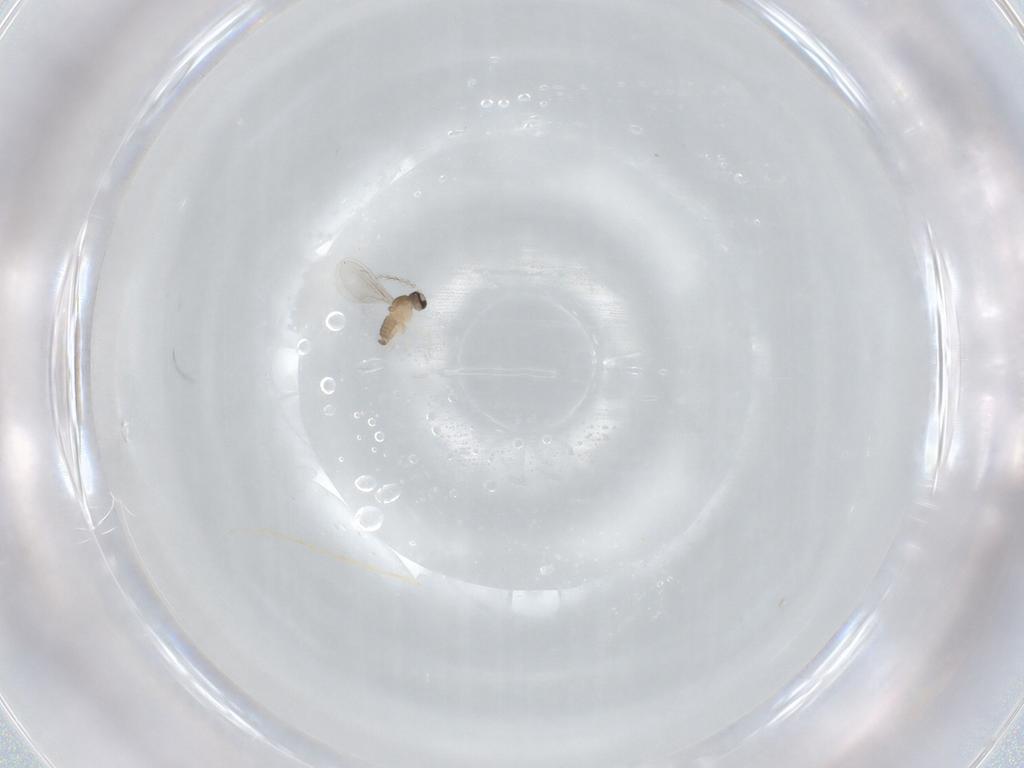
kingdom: Animalia
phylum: Arthropoda
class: Insecta
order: Diptera
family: Cecidomyiidae
